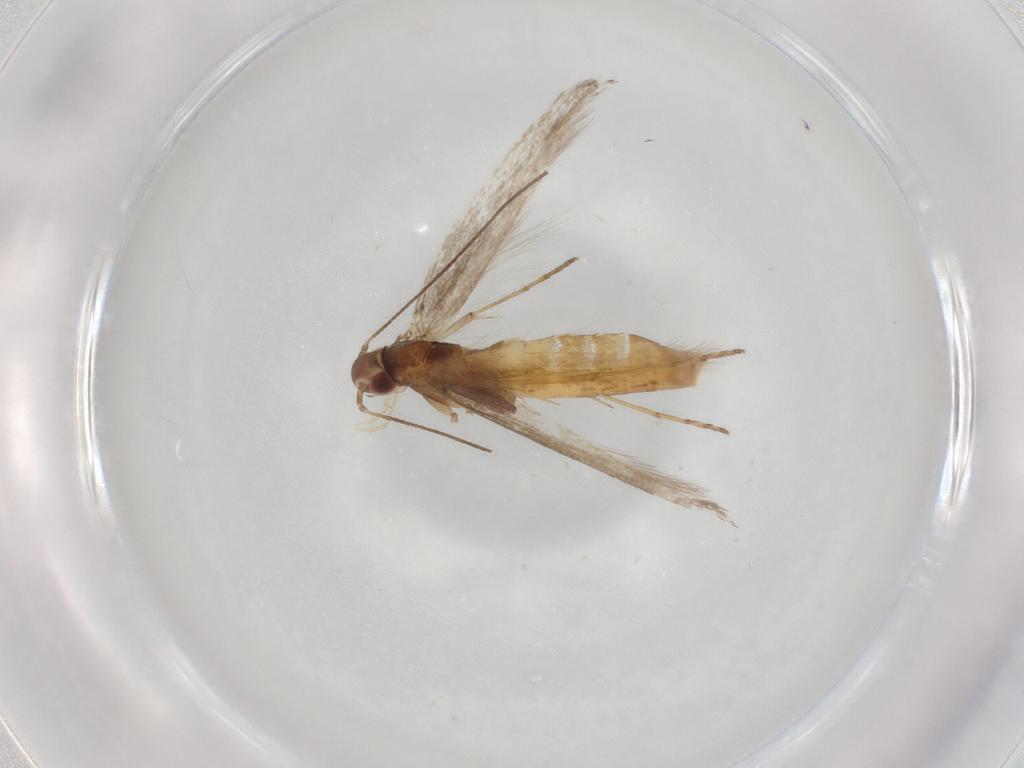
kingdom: Animalia
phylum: Arthropoda
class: Insecta
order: Lepidoptera
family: Gracillariidae
